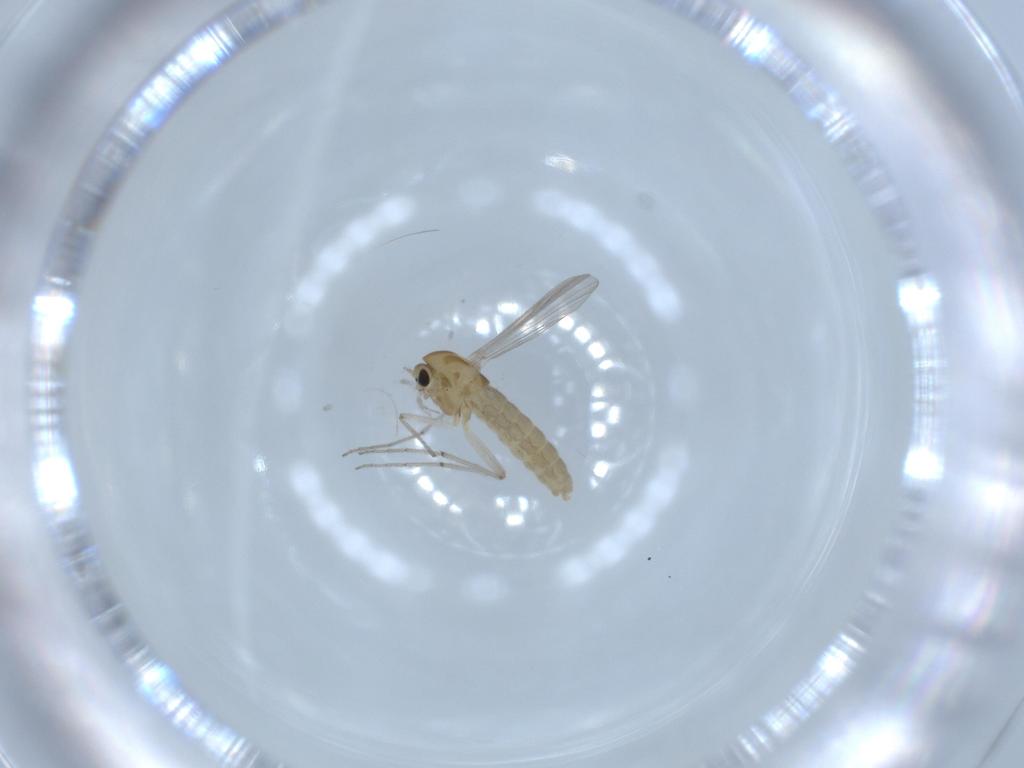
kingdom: Animalia
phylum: Arthropoda
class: Insecta
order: Diptera
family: Chironomidae
